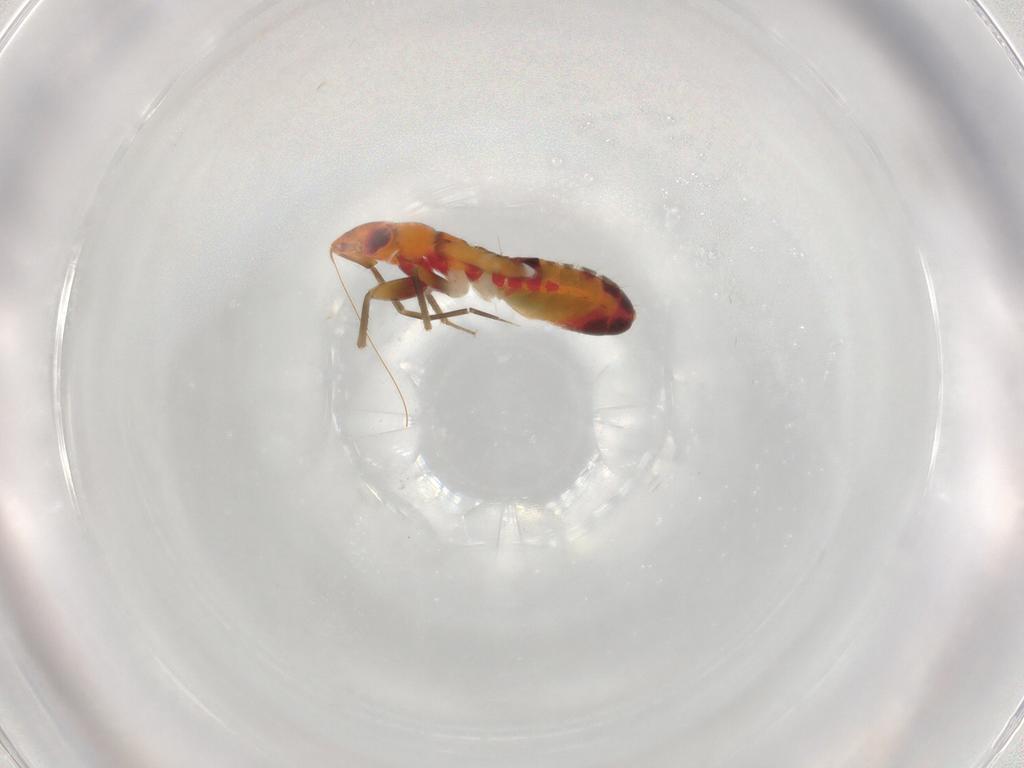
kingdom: Animalia
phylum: Arthropoda
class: Insecta
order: Hemiptera
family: Miridae
